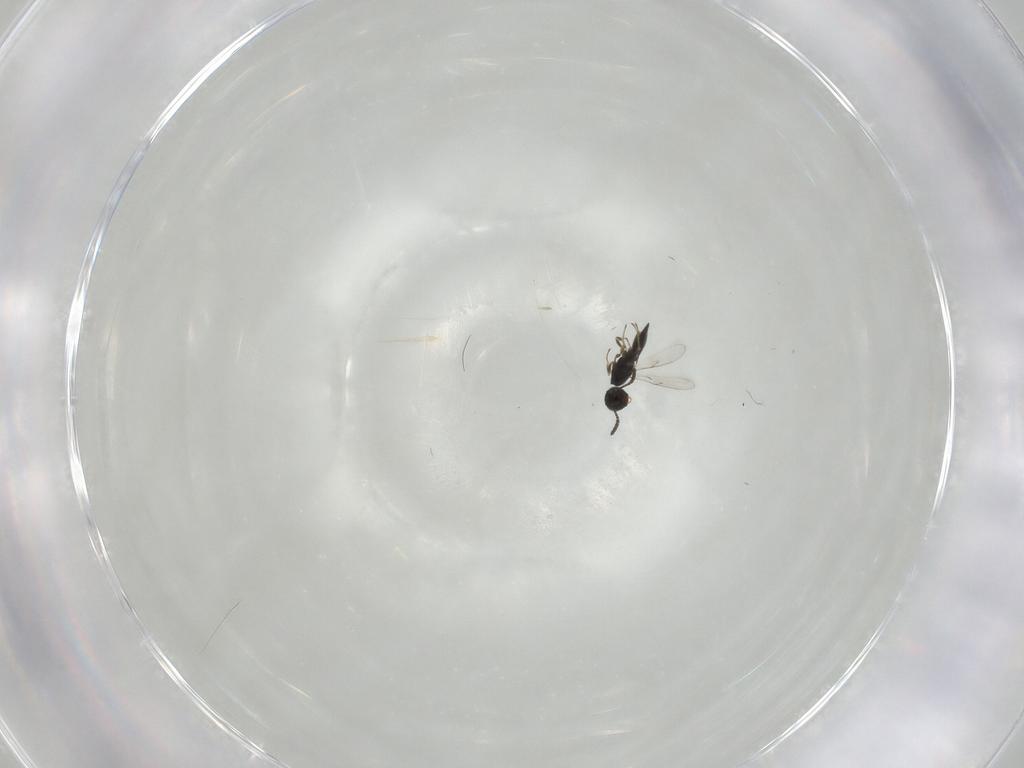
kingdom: Animalia
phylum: Arthropoda
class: Insecta
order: Hymenoptera
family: Scelionidae
